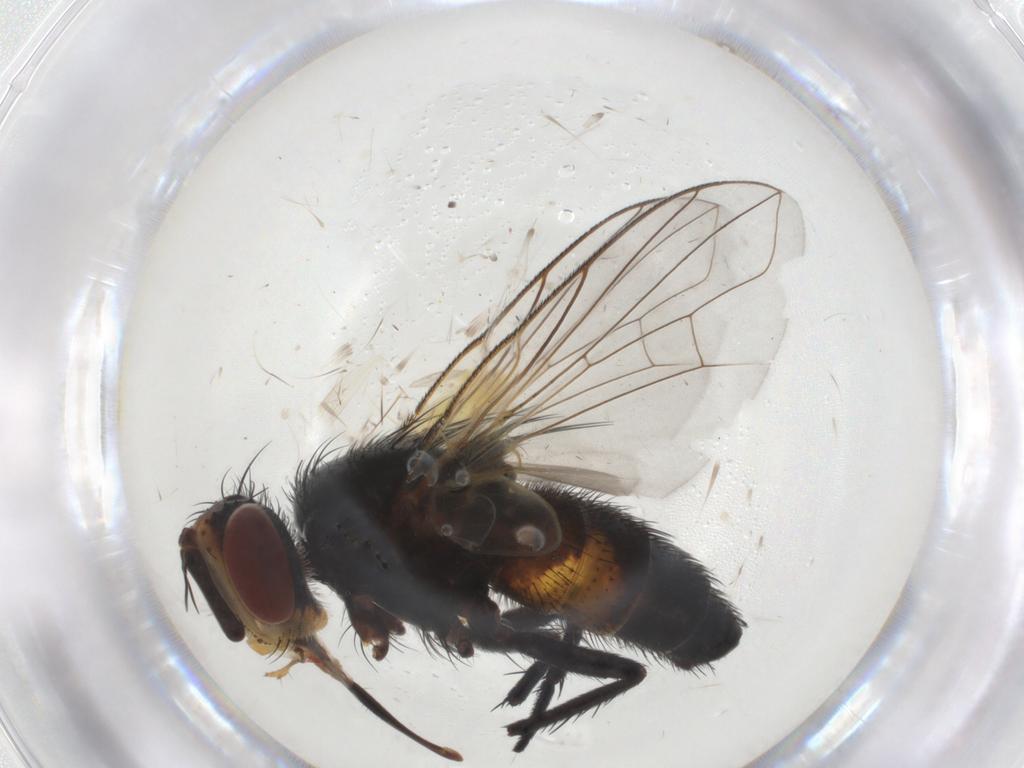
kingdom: Animalia
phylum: Arthropoda
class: Insecta
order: Diptera
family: Tachinidae
